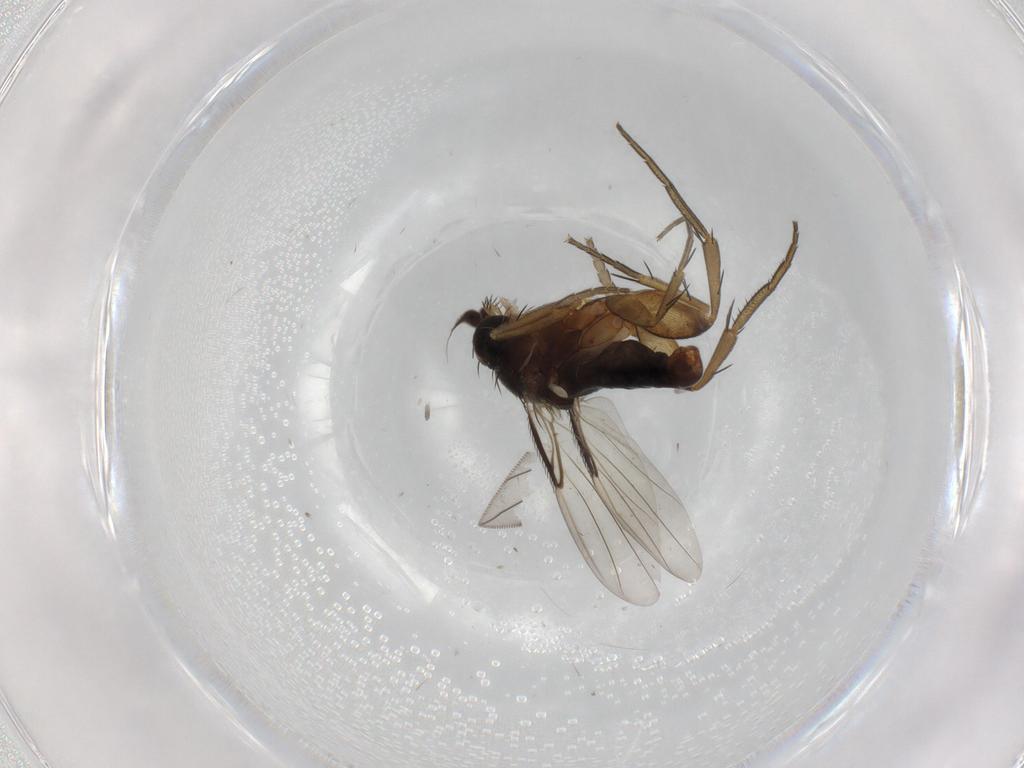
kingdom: Animalia
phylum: Arthropoda
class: Insecta
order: Diptera
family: Phoridae
